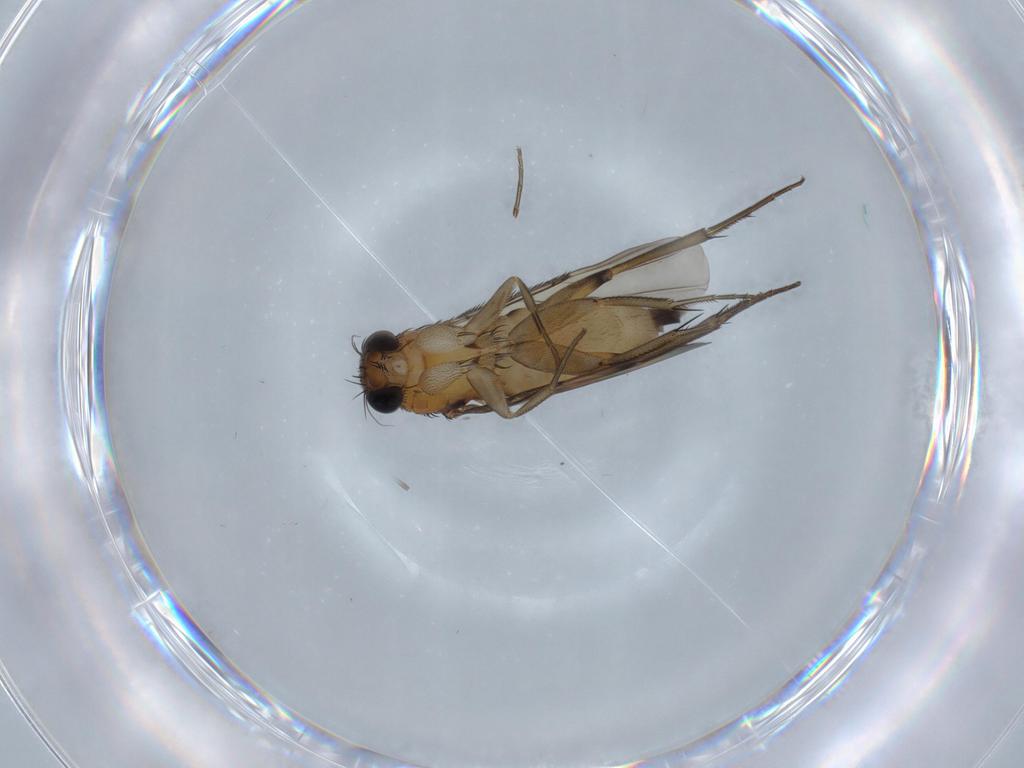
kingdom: Animalia
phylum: Arthropoda
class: Insecta
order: Diptera
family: Phoridae
